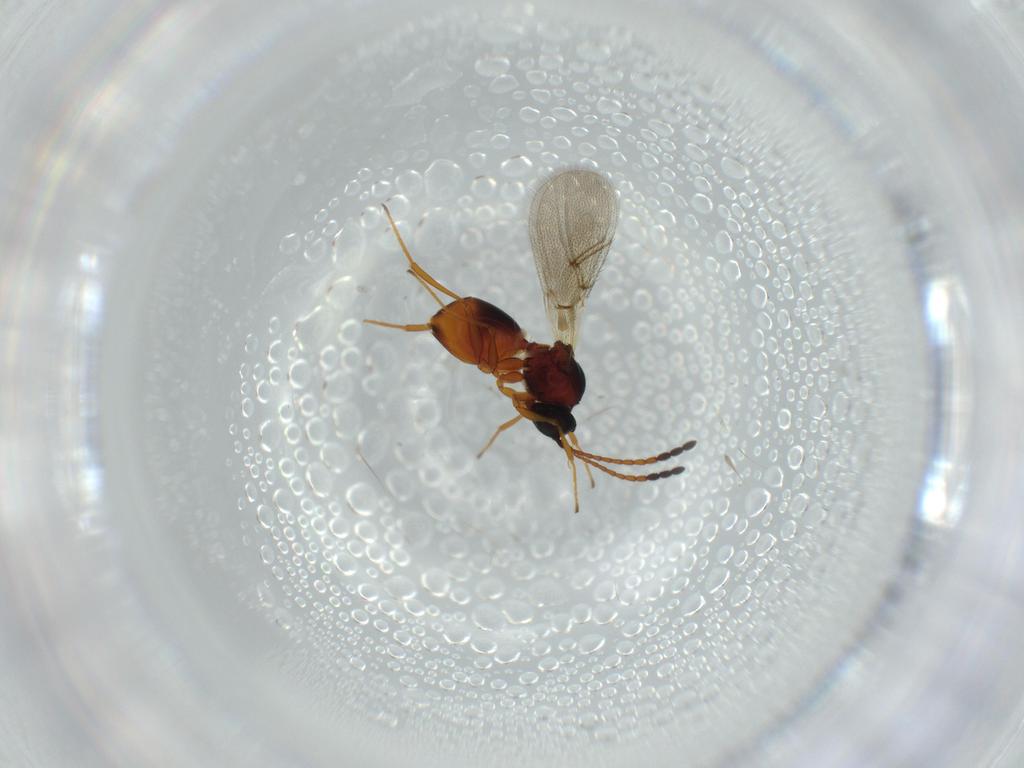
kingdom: Animalia
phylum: Arthropoda
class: Insecta
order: Hymenoptera
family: Figitidae
